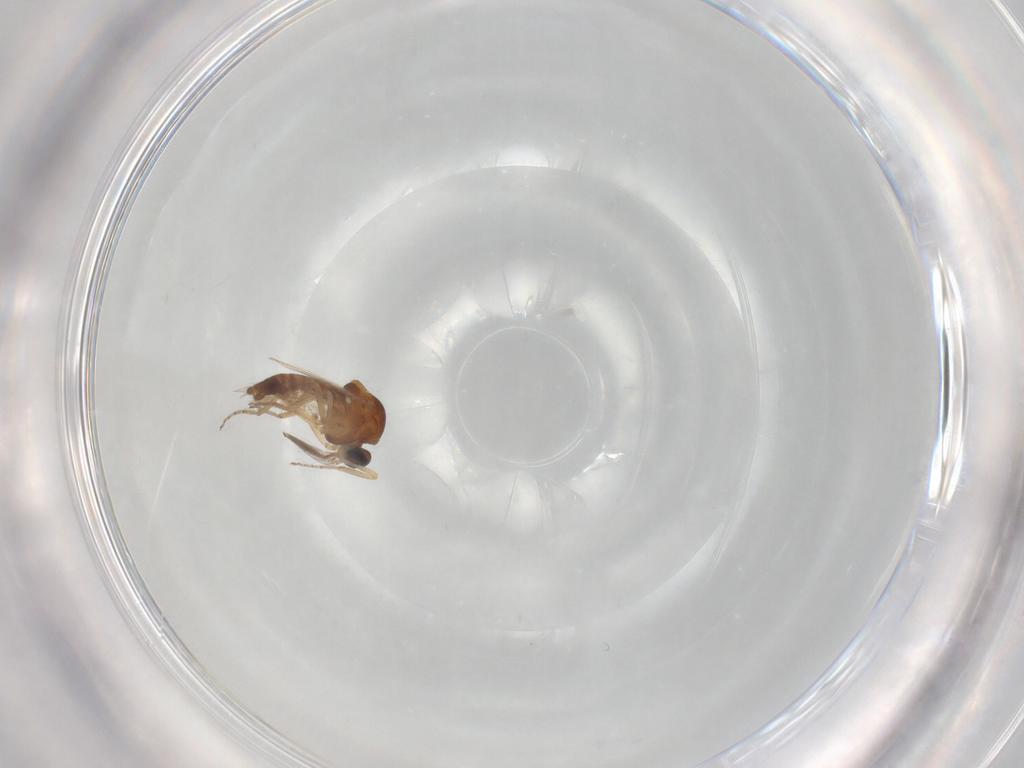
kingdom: Animalia
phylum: Arthropoda
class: Insecta
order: Diptera
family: Ceratopogonidae
